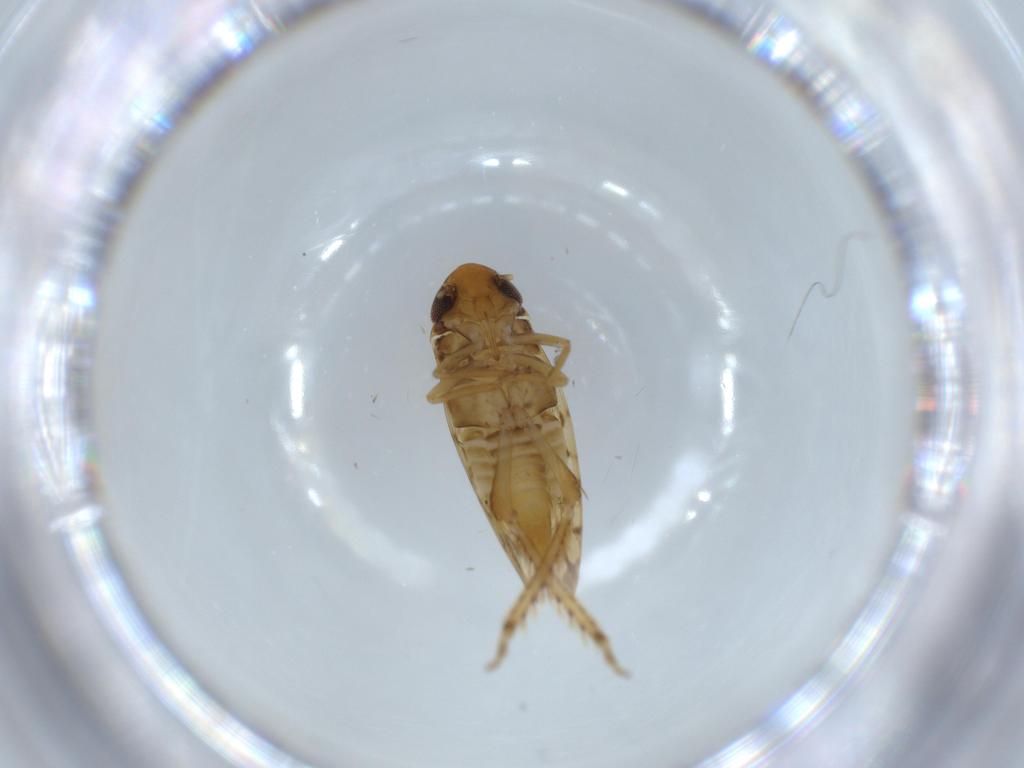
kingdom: Animalia
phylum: Arthropoda
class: Insecta
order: Hemiptera
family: Cicadellidae
